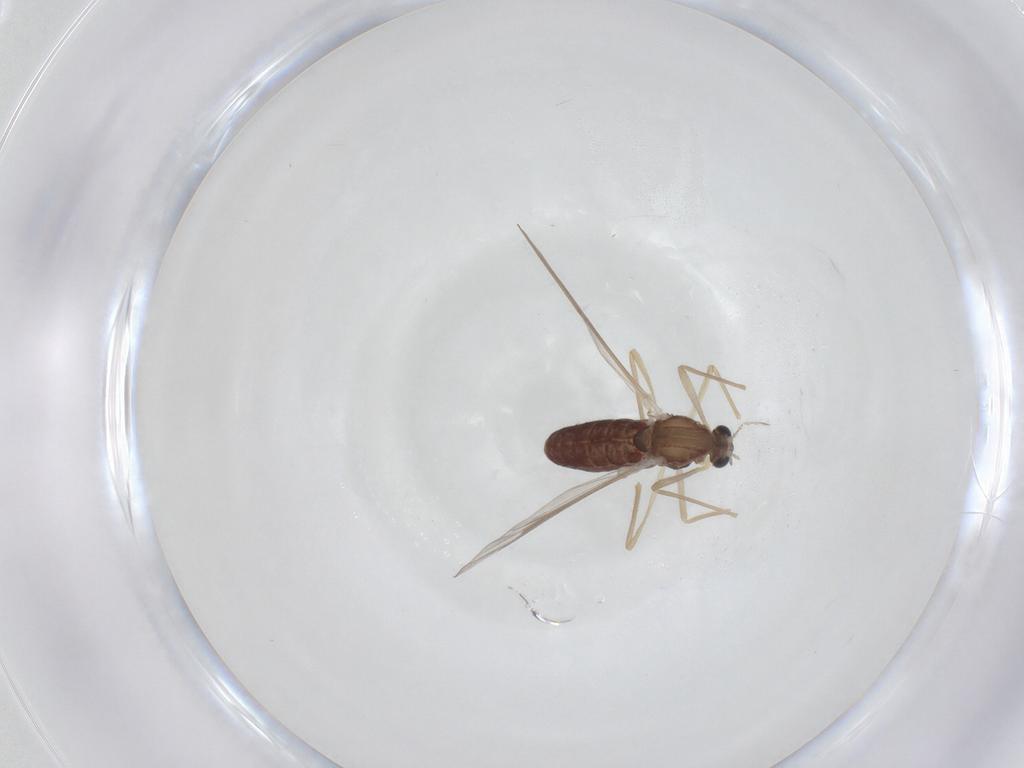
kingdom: Animalia
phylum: Arthropoda
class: Insecta
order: Diptera
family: Chironomidae
